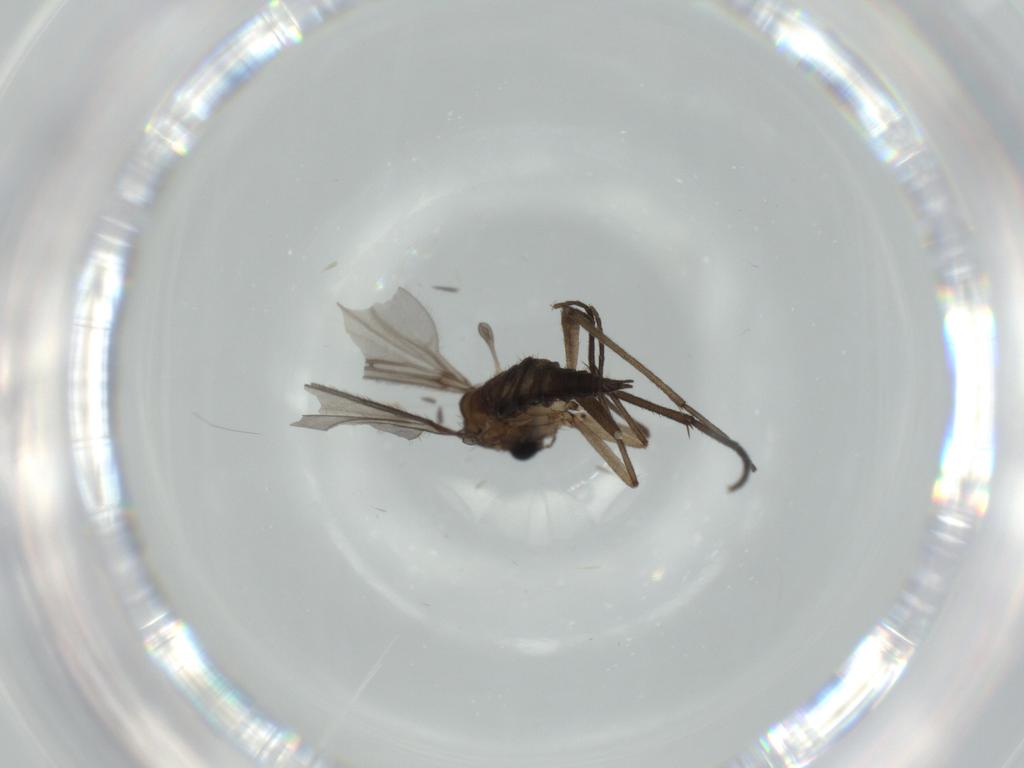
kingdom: Animalia
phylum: Arthropoda
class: Insecta
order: Diptera
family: Sciaridae
